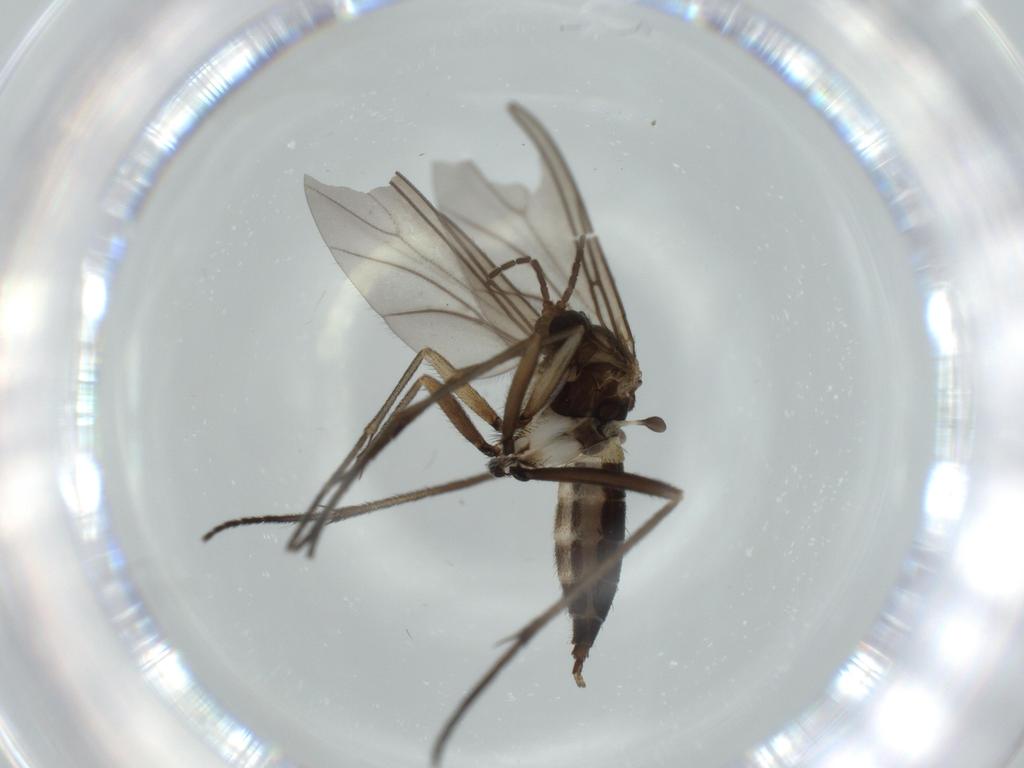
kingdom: Animalia
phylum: Arthropoda
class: Insecta
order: Diptera
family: Sciaridae
